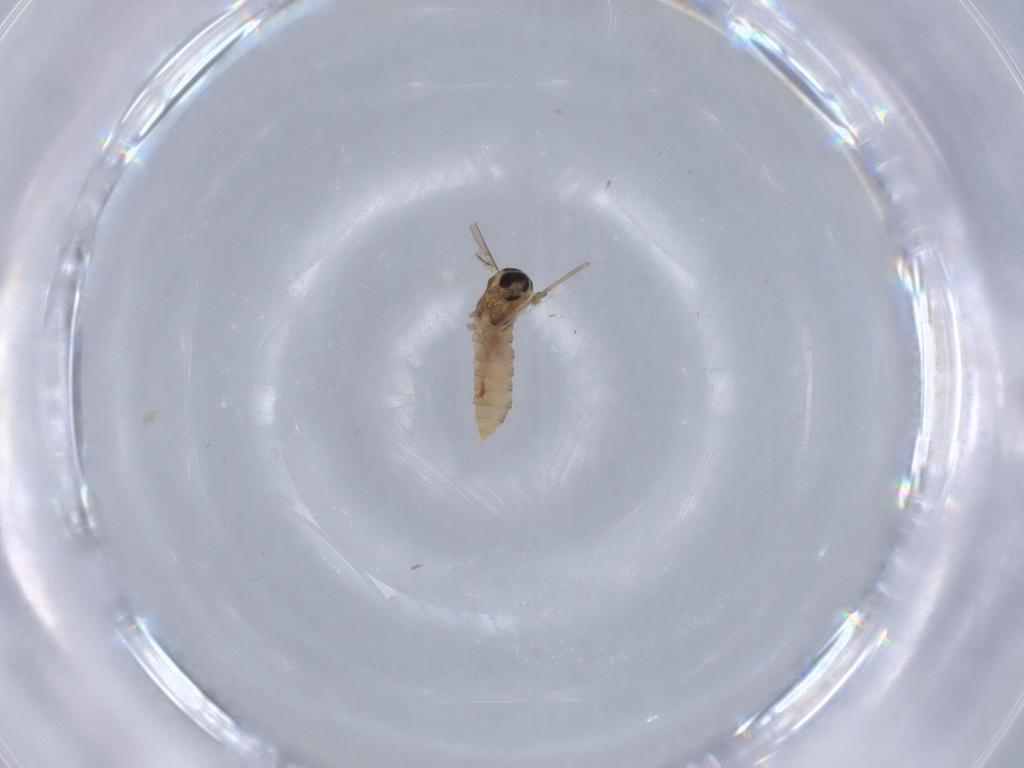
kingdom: Animalia
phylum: Arthropoda
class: Insecta
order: Diptera
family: Cecidomyiidae
